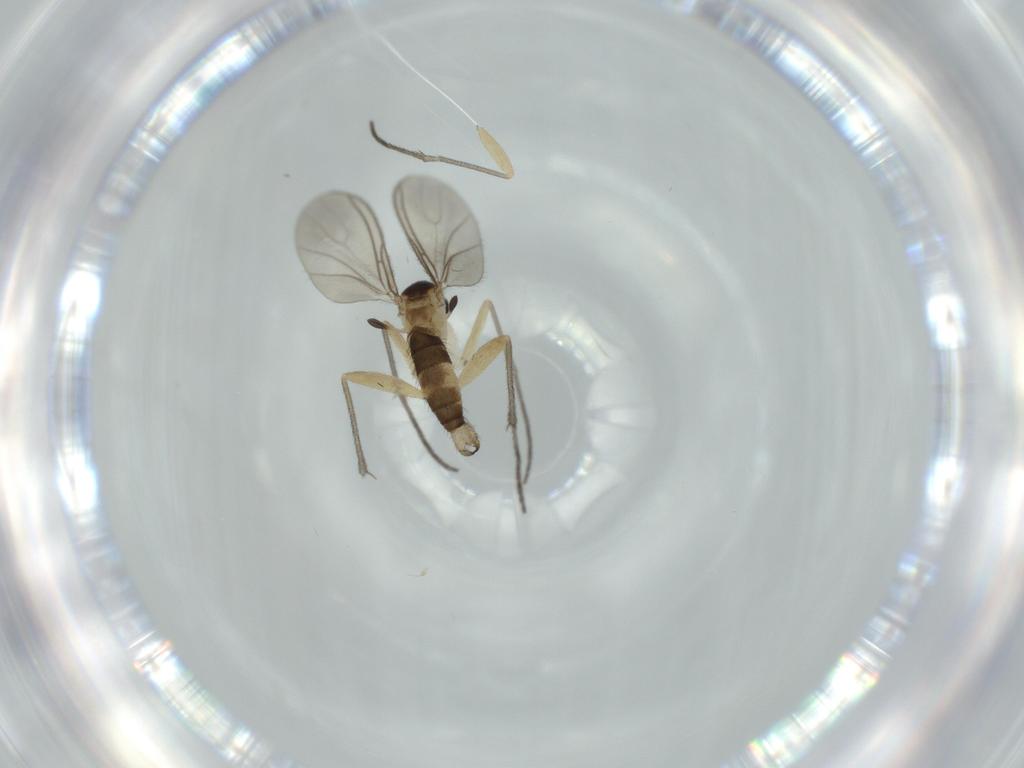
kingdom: Animalia
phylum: Arthropoda
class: Insecta
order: Diptera
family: Sciaridae
